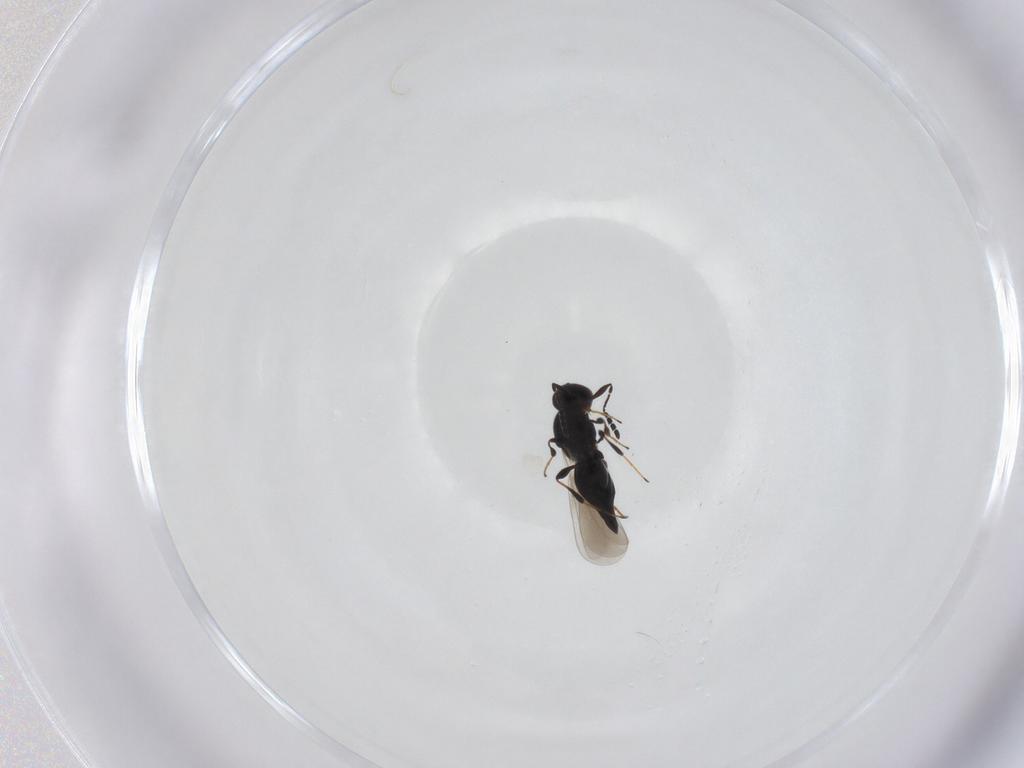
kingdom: Animalia
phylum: Arthropoda
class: Insecta
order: Hymenoptera
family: Platygastridae
